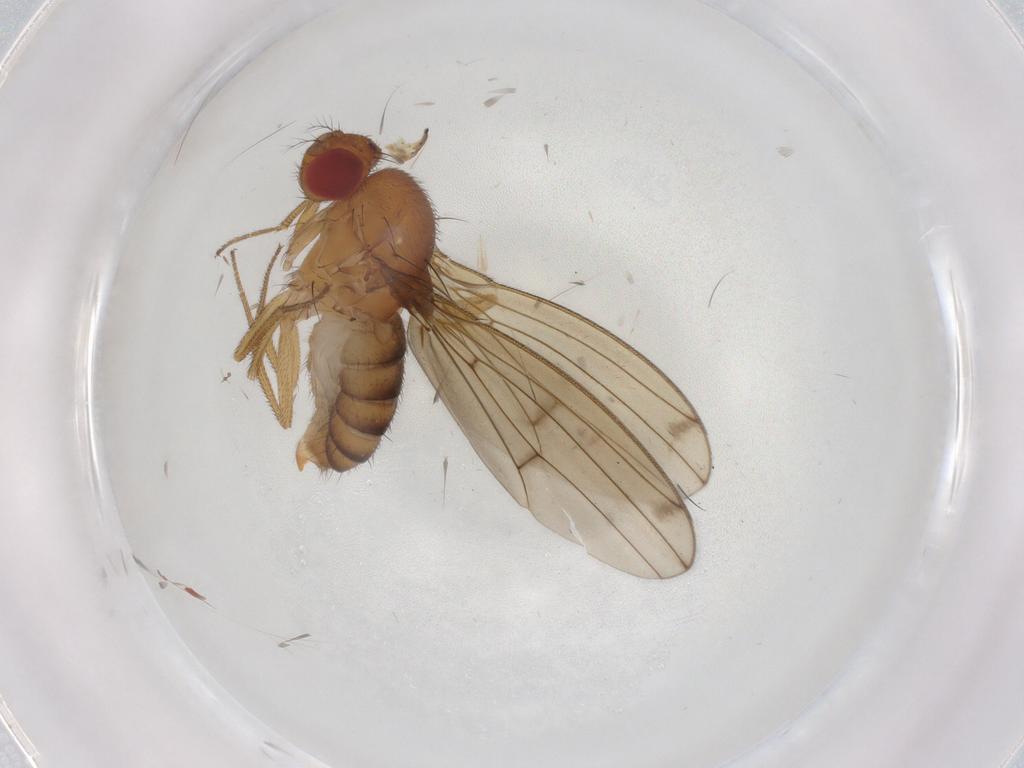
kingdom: Animalia
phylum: Arthropoda
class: Insecta
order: Diptera
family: Drosophilidae
